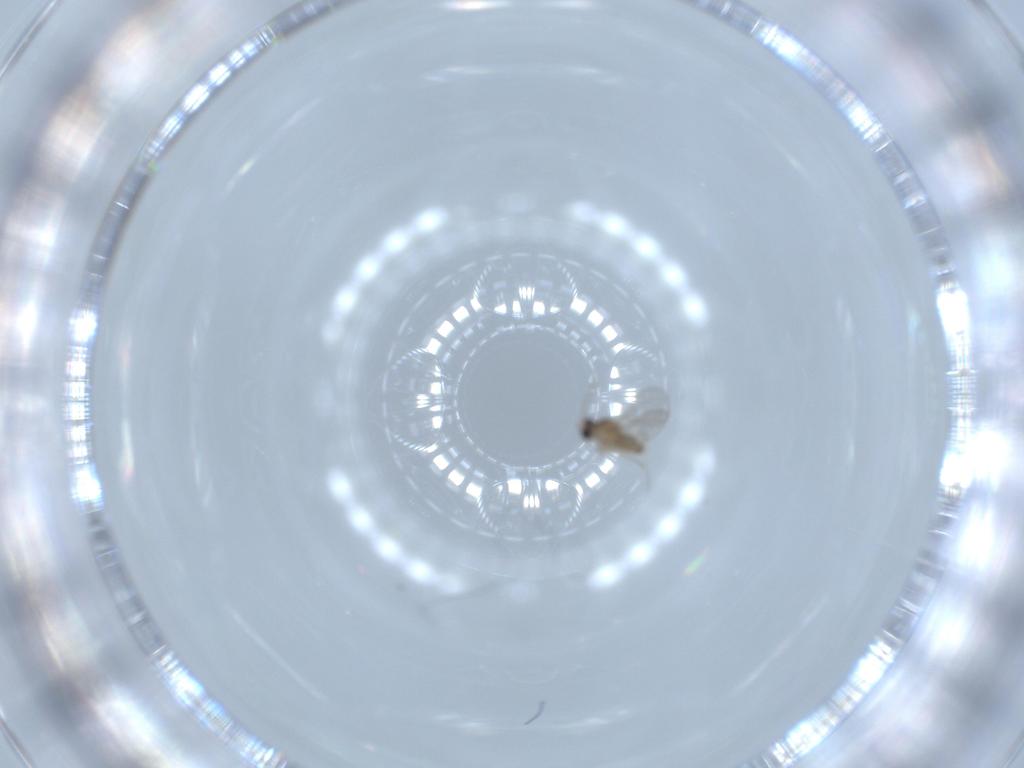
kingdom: Animalia
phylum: Arthropoda
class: Insecta
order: Diptera
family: Cecidomyiidae
